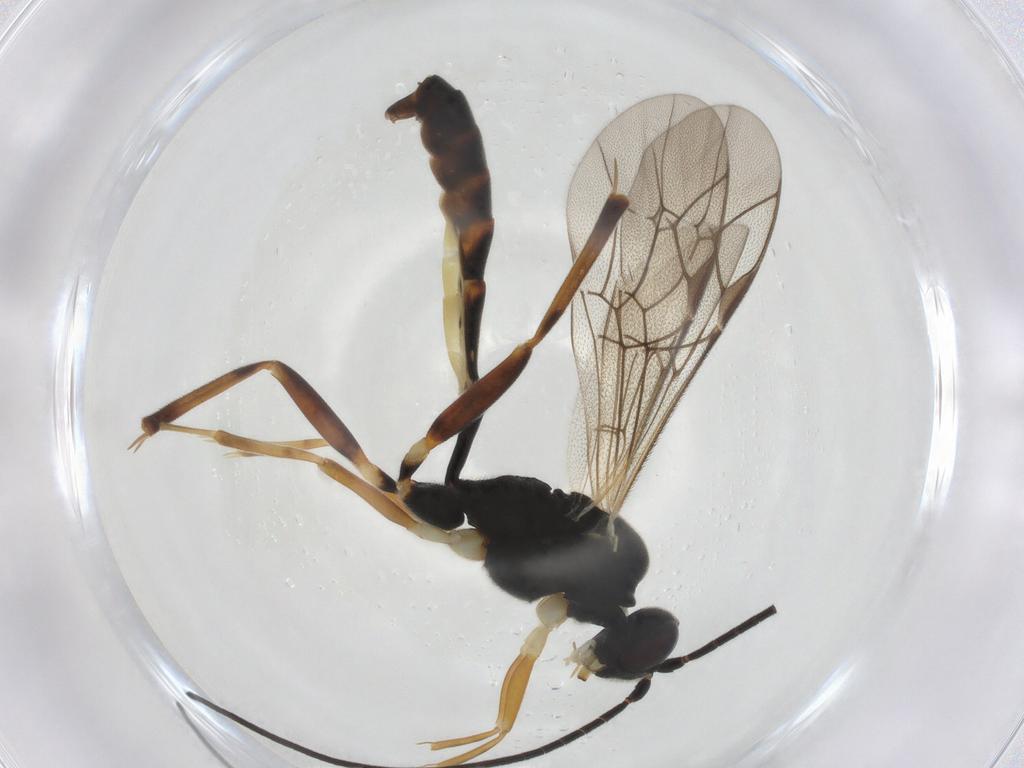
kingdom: Animalia
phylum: Arthropoda
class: Insecta
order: Hymenoptera
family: Ichneumonidae
